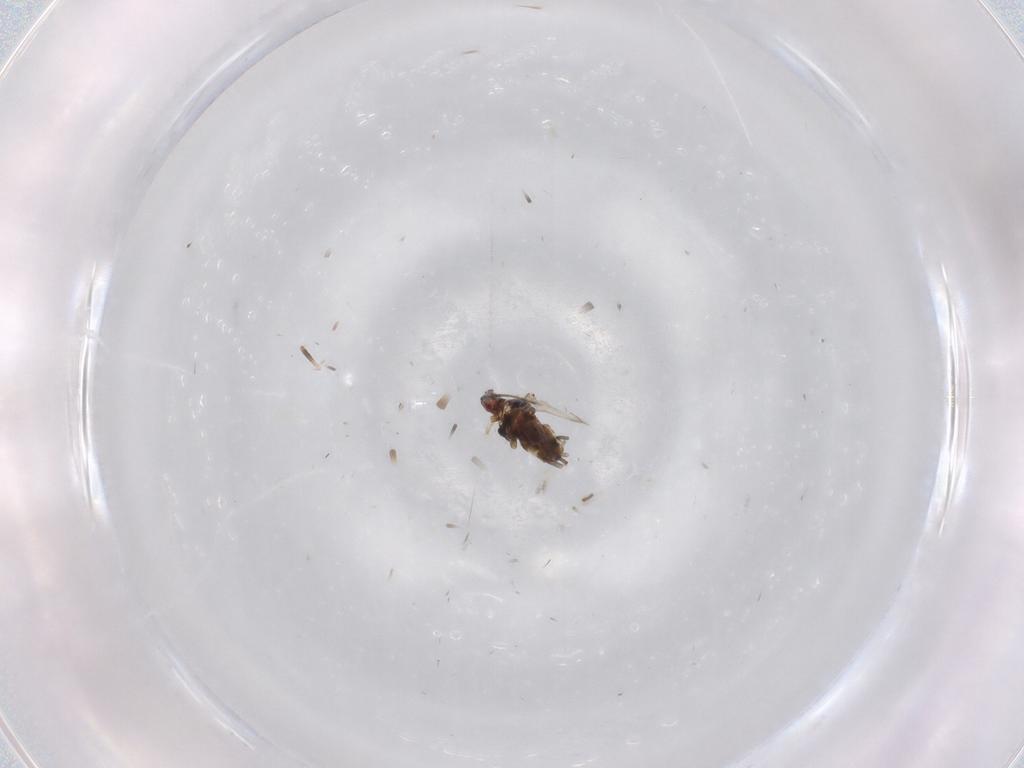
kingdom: Animalia
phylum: Arthropoda
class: Insecta
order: Hemiptera
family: Aphididae
